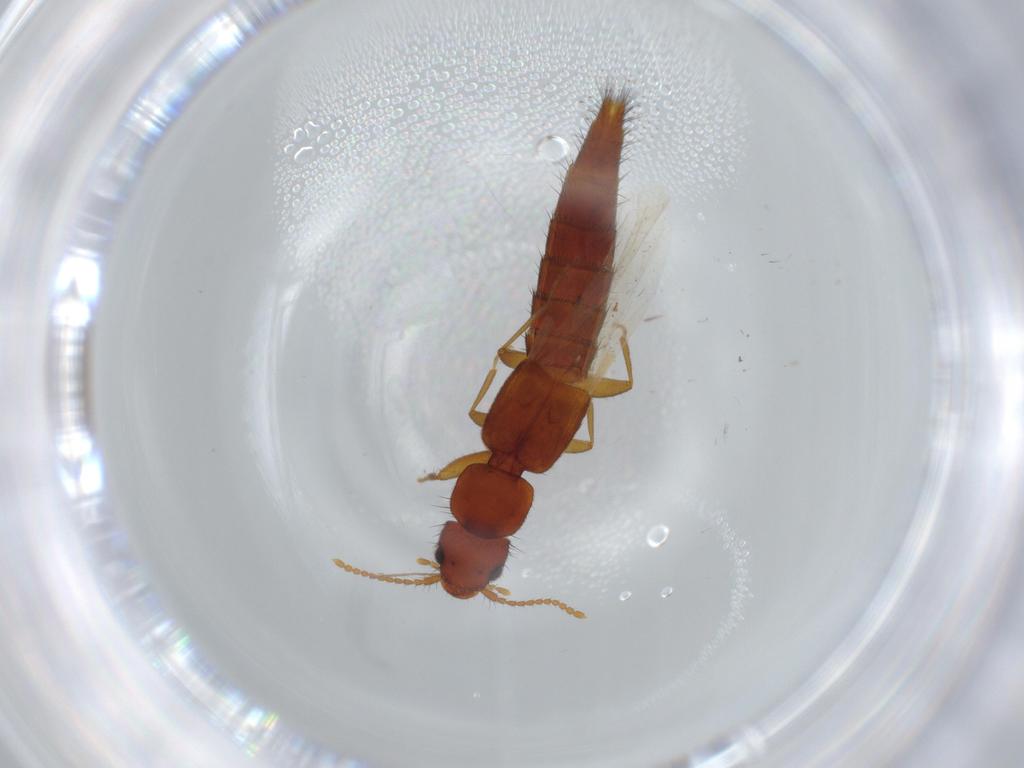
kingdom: Animalia
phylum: Arthropoda
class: Insecta
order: Coleoptera
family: Staphylinidae
